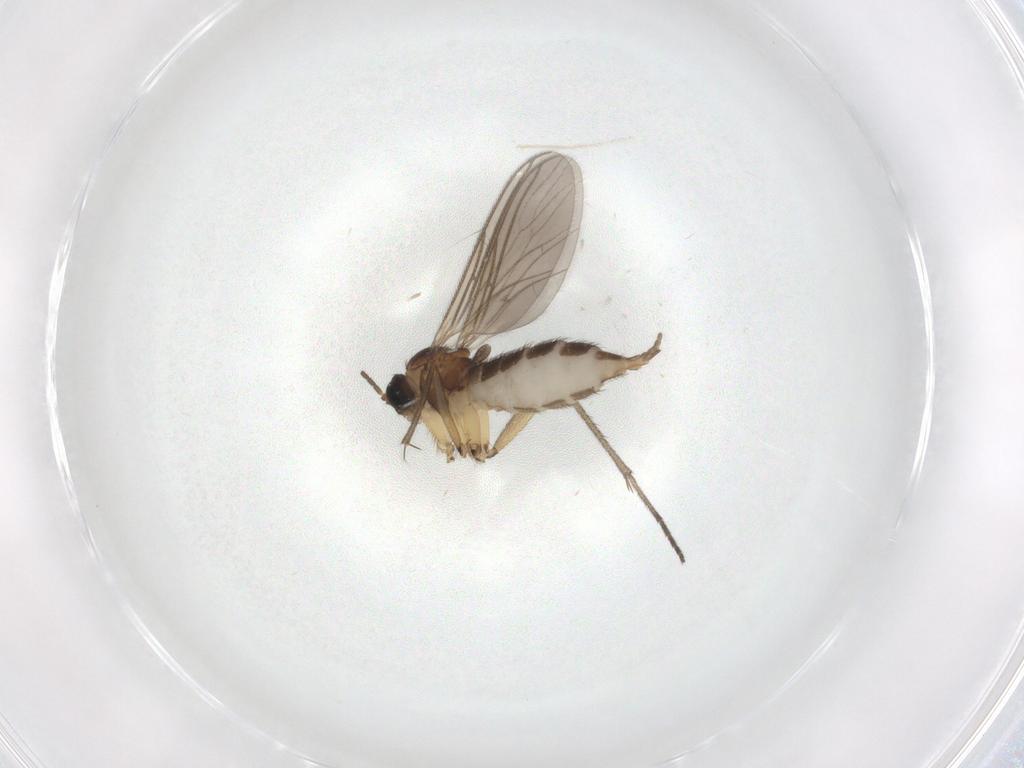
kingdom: Animalia
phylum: Arthropoda
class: Insecta
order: Diptera
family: Sciaridae
